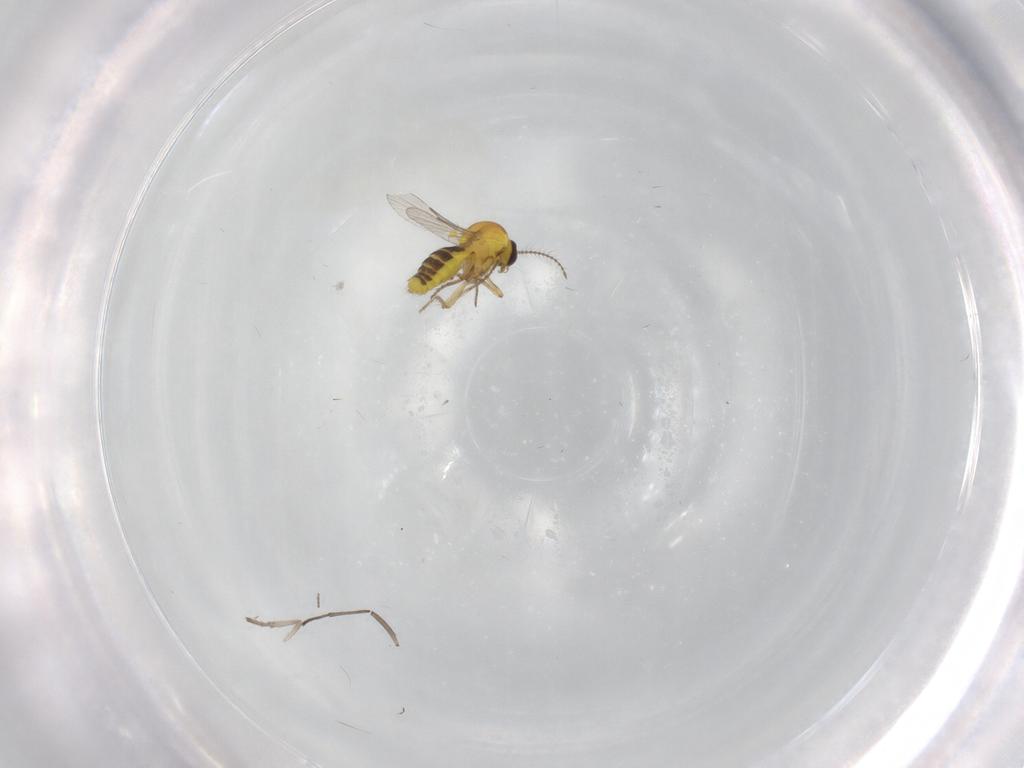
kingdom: Animalia
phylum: Arthropoda
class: Insecta
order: Diptera
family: Psychodidae
